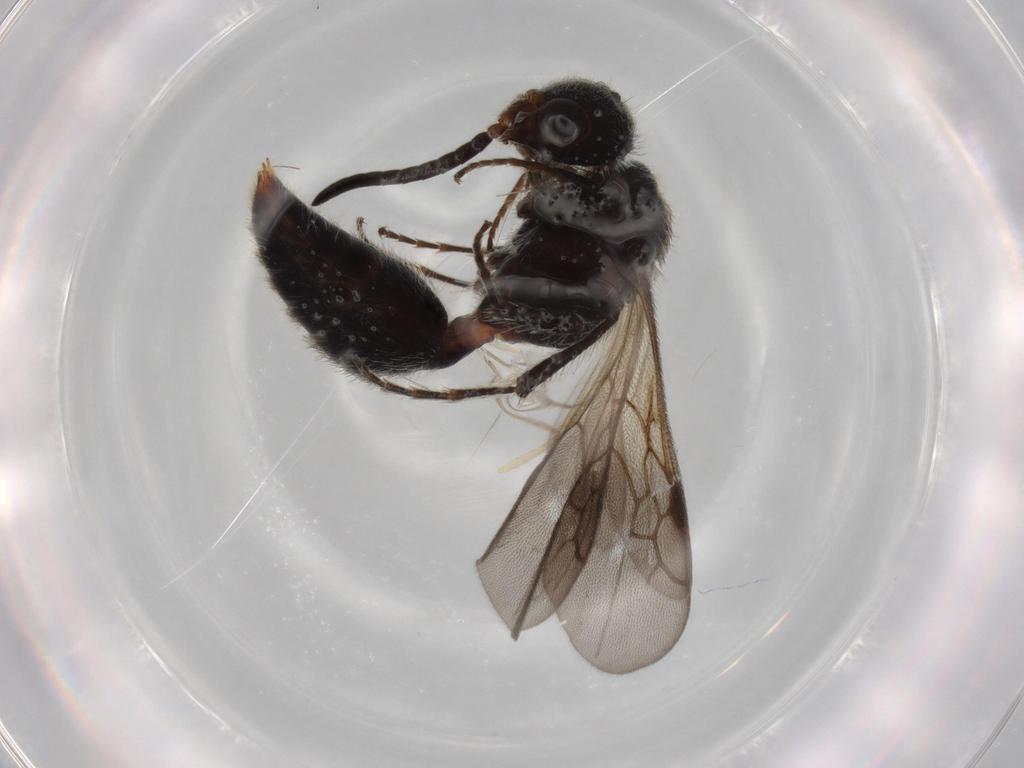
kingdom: Animalia
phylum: Arthropoda
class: Insecta
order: Hymenoptera
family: Mutillidae
